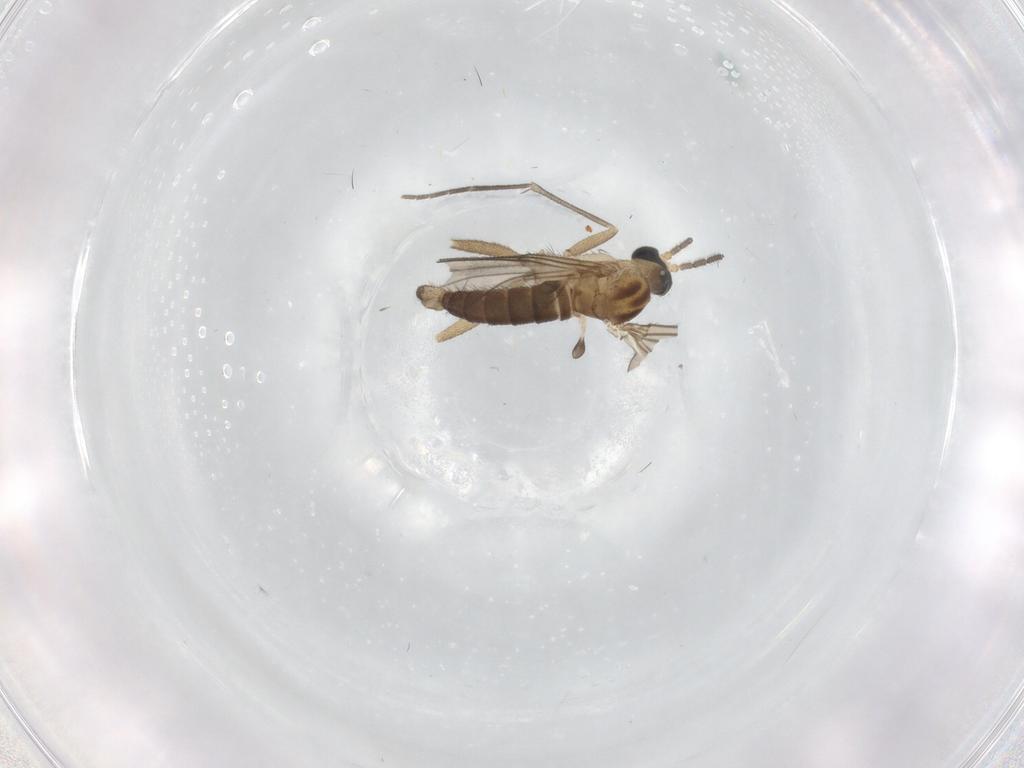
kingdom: Animalia
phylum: Arthropoda
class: Insecta
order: Diptera
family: Sciaridae
